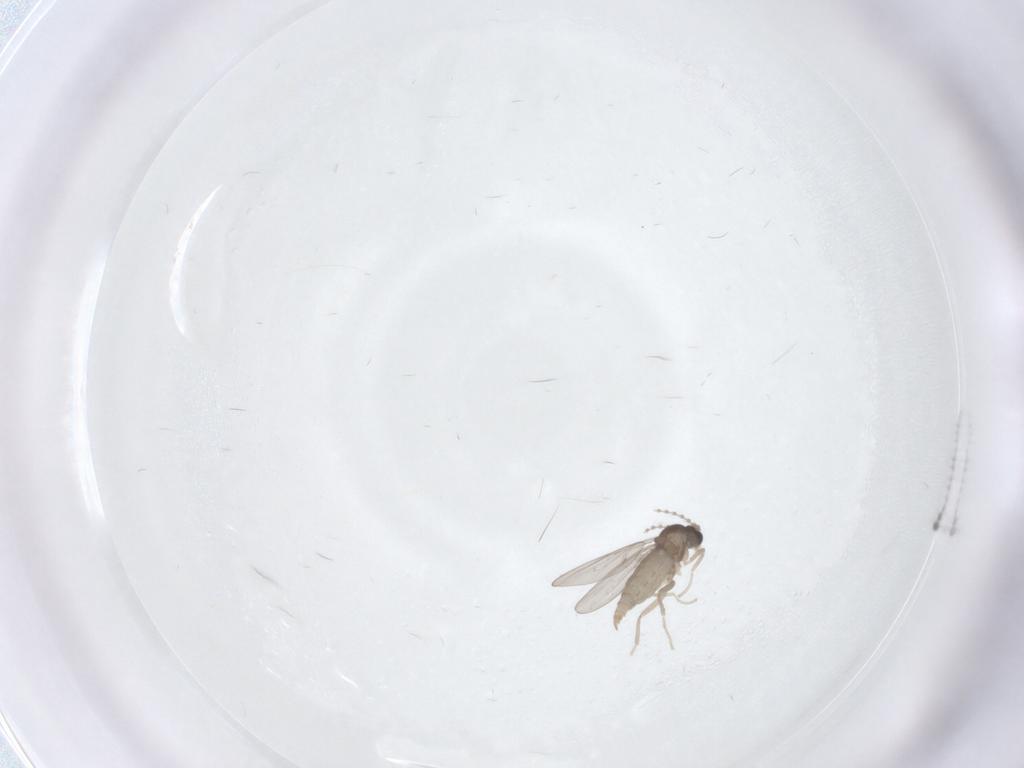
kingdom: Animalia
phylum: Arthropoda
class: Insecta
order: Diptera
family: Cecidomyiidae
